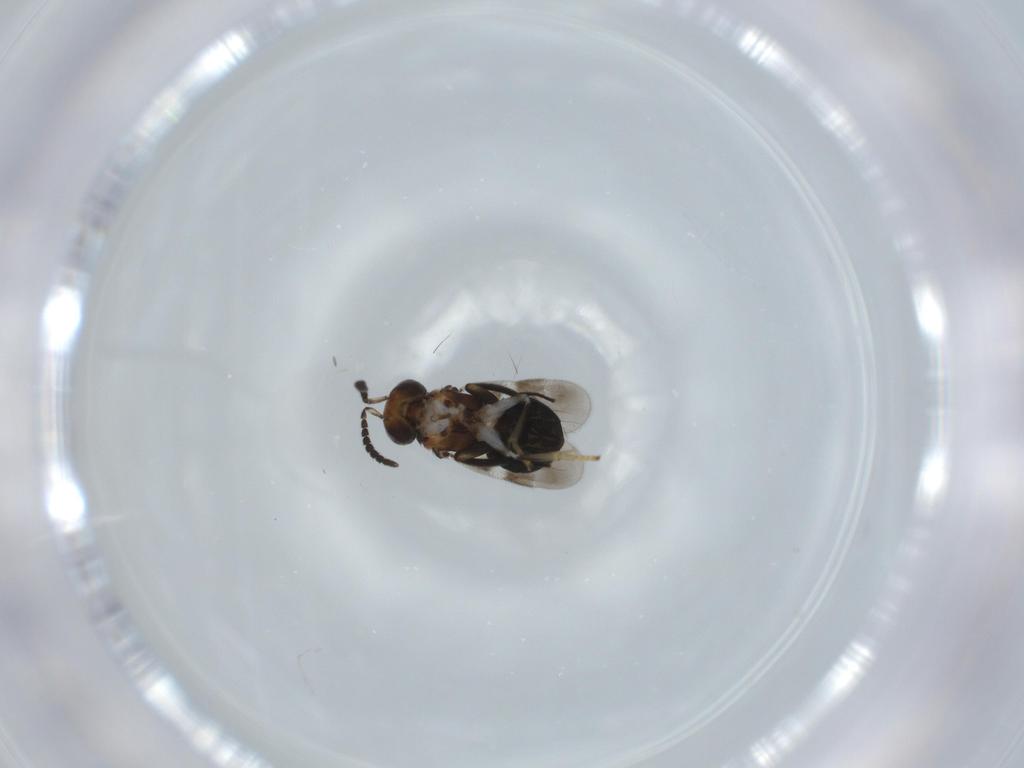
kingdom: Animalia
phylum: Arthropoda
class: Insecta
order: Hymenoptera
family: Encyrtidae
